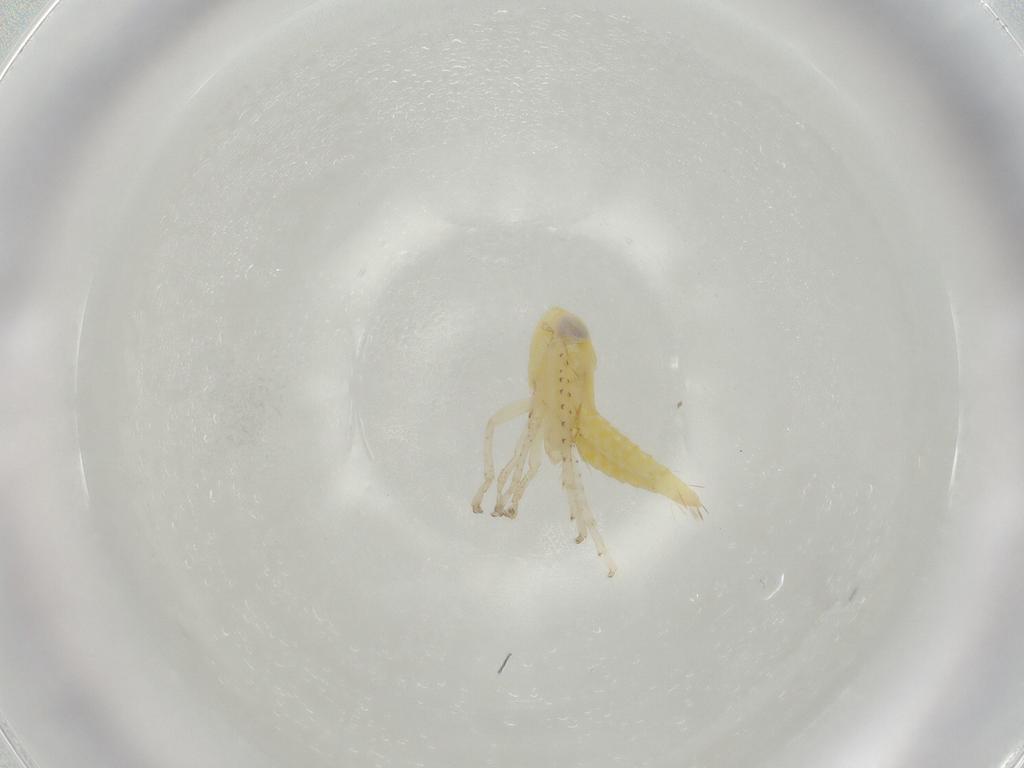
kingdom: Animalia
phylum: Arthropoda
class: Insecta
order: Hemiptera
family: Cicadellidae
